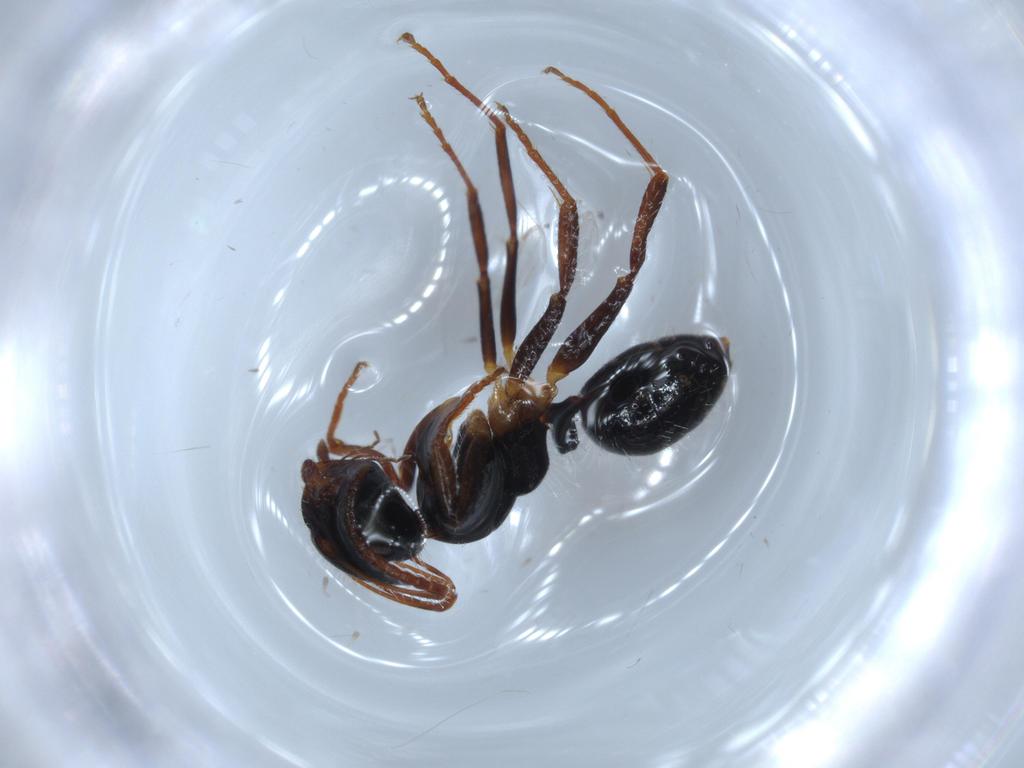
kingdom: Animalia
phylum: Arthropoda
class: Insecta
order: Hymenoptera
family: Formicidae
